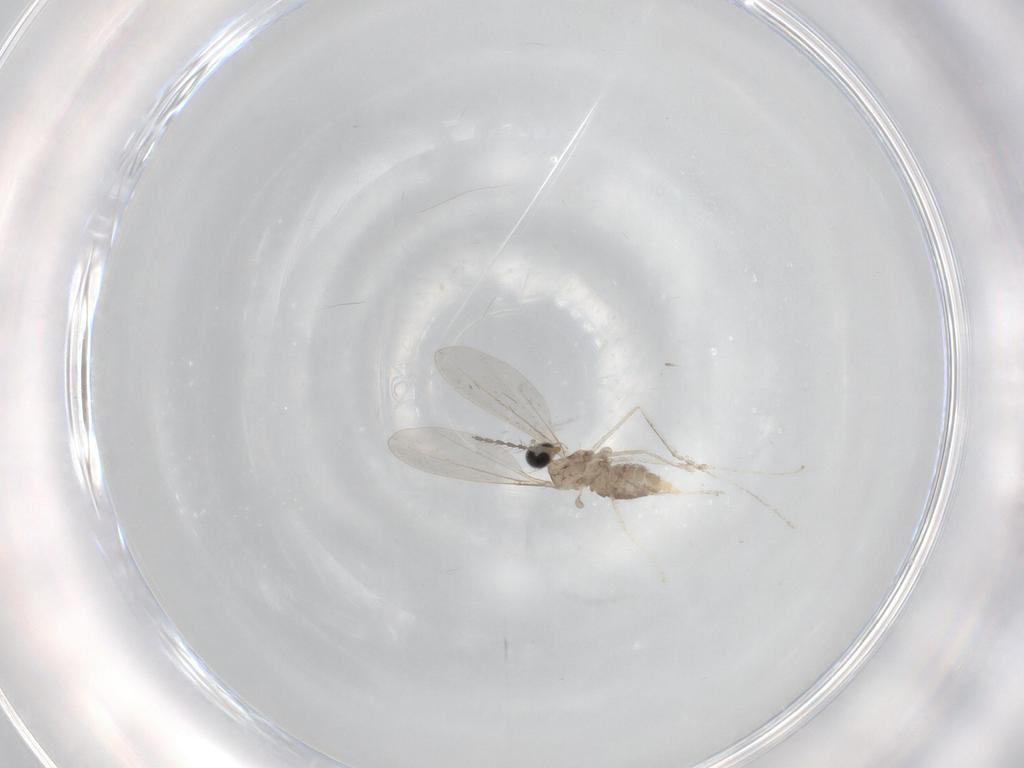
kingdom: Animalia
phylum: Arthropoda
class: Insecta
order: Diptera
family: Cecidomyiidae
